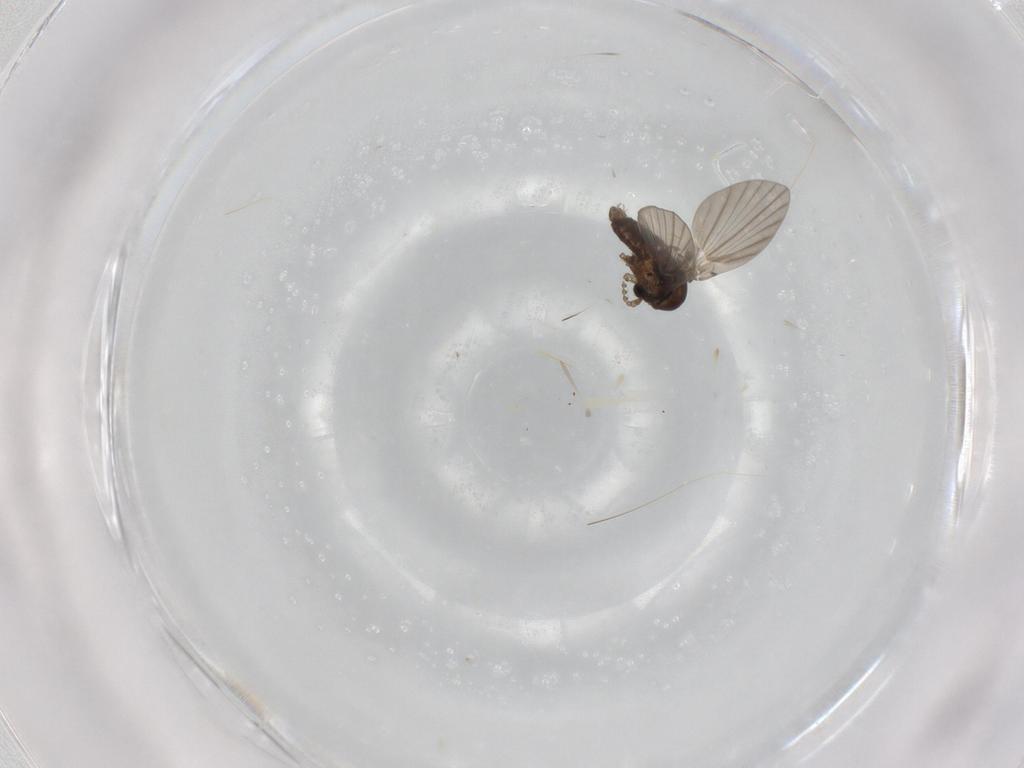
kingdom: Animalia
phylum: Arthropoda
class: Insecta
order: Diptera
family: Psychodidae
